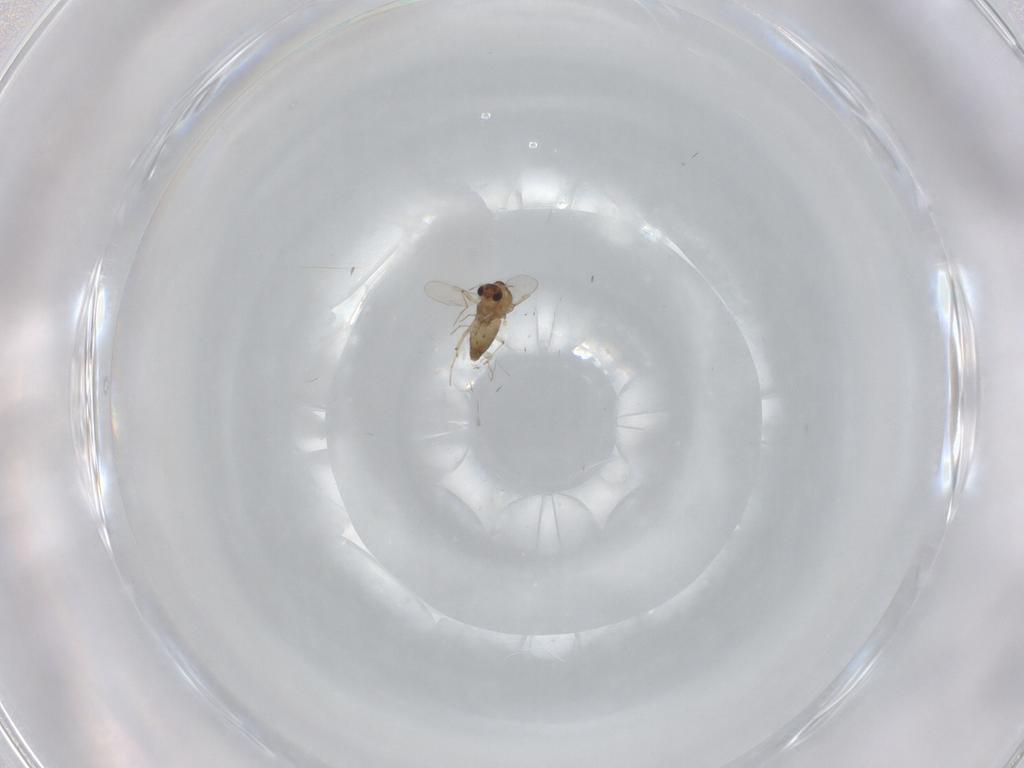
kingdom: Animalia
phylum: Arthropoda
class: Insecta
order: Diptera
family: Chironomidae
